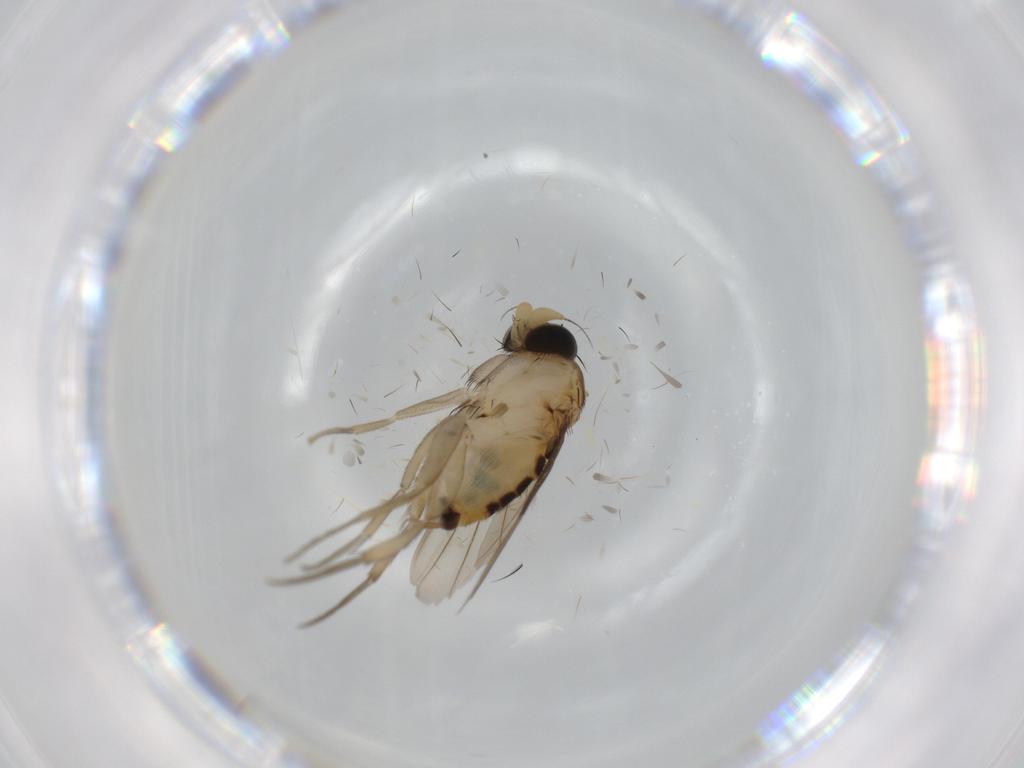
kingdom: Animalia
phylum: Arthropoda
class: Insecta
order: Diptera
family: Phoridae
